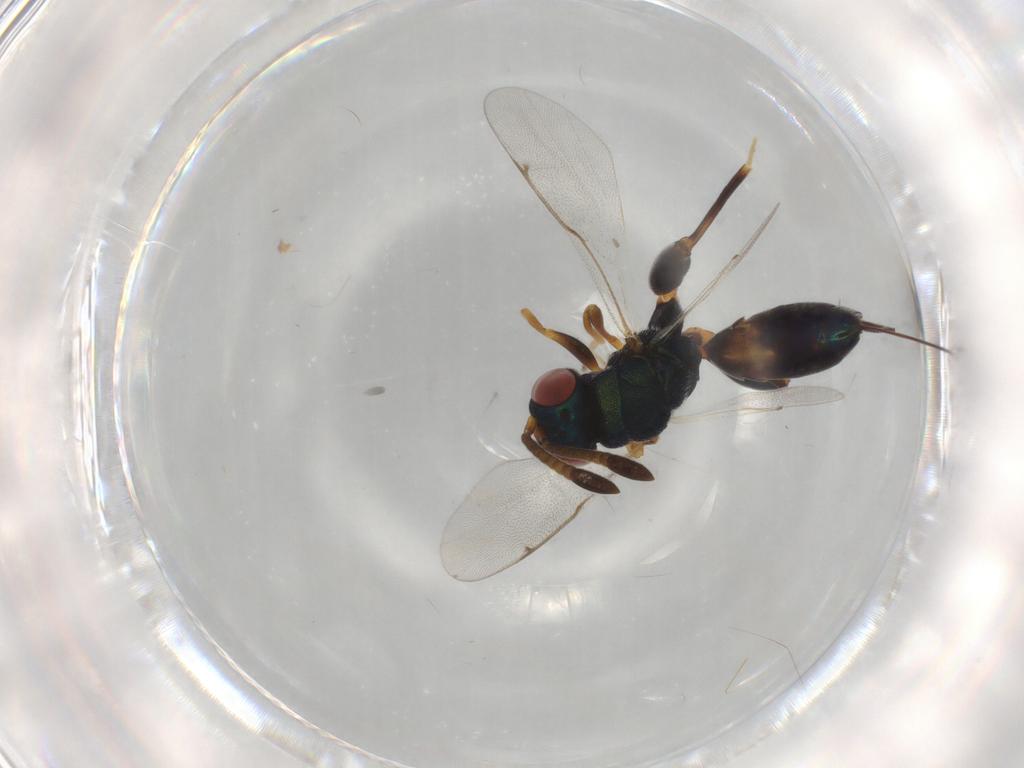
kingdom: Animalia
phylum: Arthropoda
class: Insecta
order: Hymenoptera
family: Torymidae
